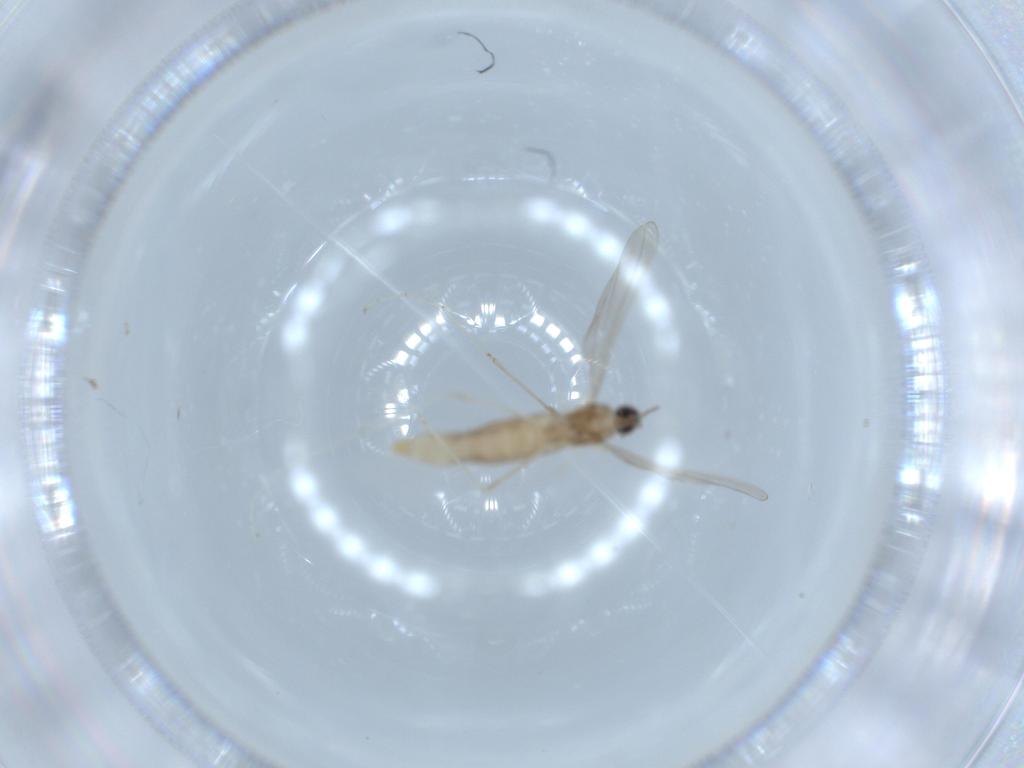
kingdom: Animalia
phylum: Arthropoda
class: Insecta
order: Diptera
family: Cecidomyiidae
